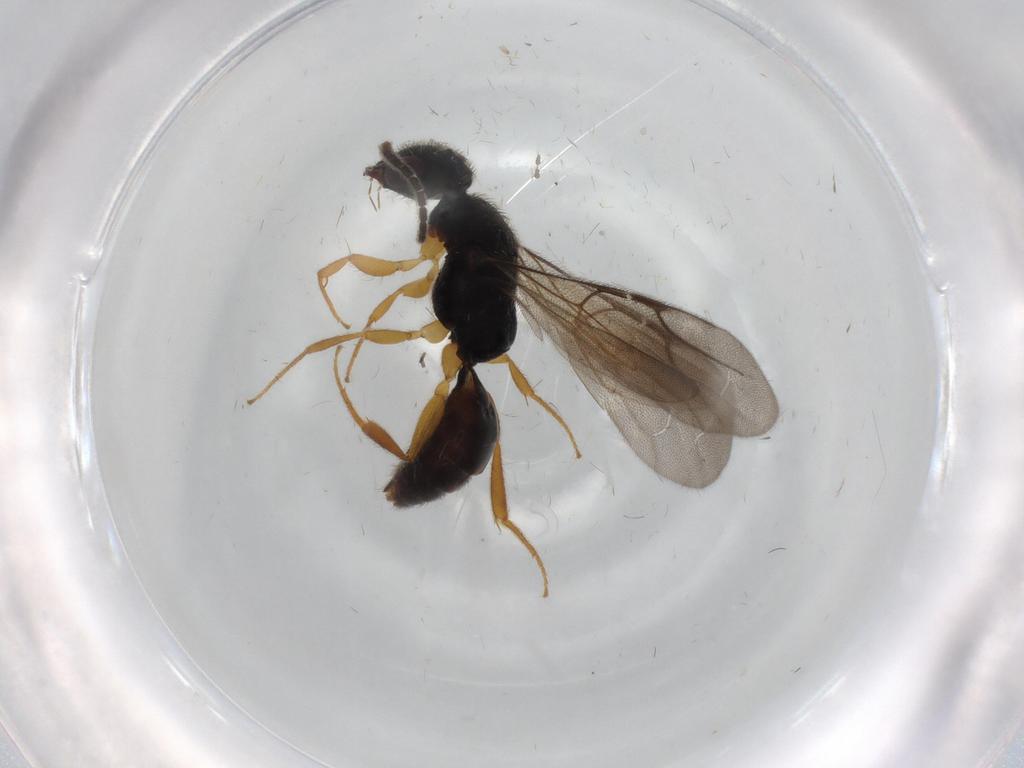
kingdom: Animalia
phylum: Arthropoda
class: Insecta
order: Hymenoptera
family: Bethylidae
